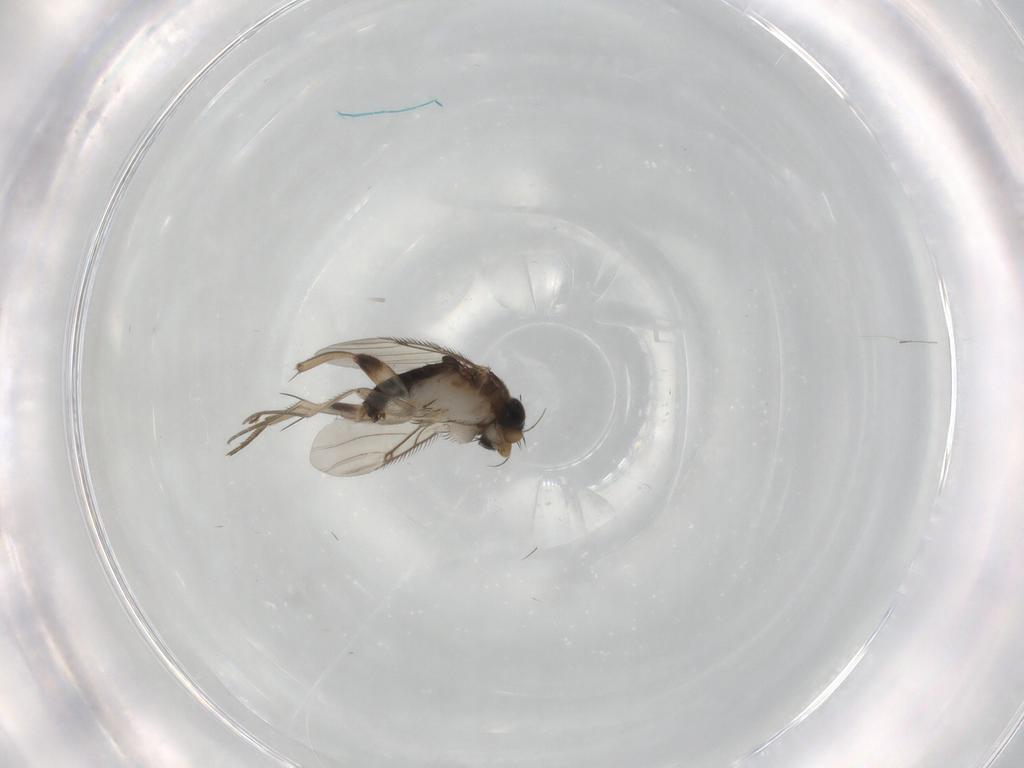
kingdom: Animalia
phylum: Arthropoda
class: Insecta
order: Diptera
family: Phoridae
